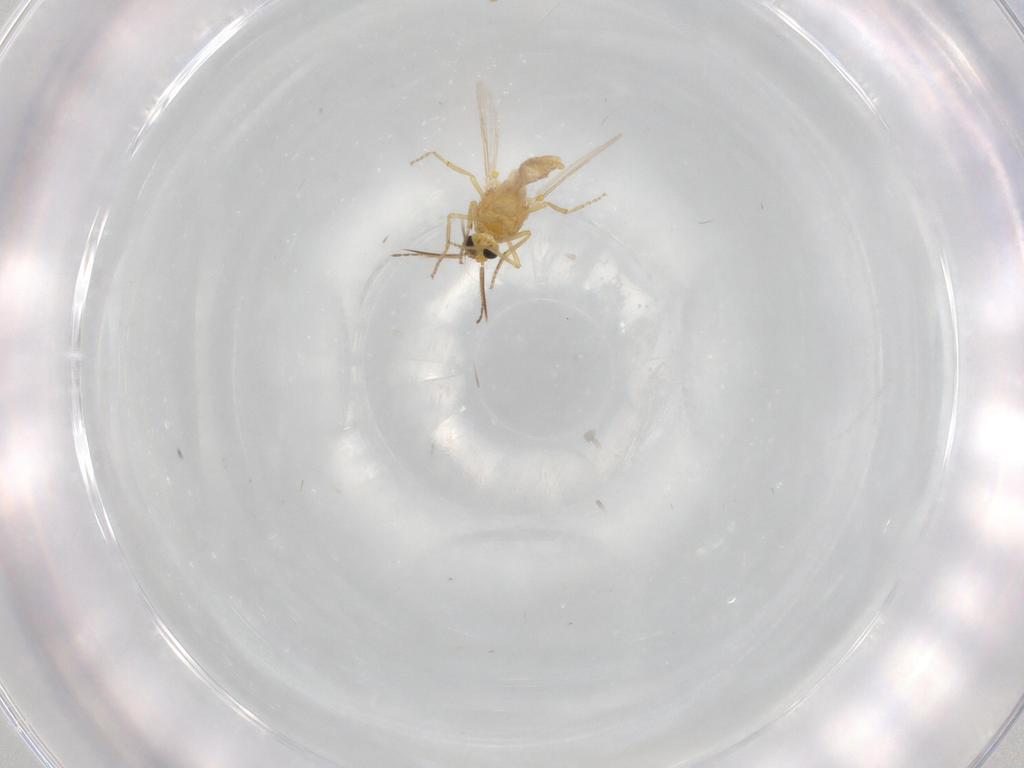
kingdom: Animalia
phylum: Arthropoda
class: Insecta
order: Diptera
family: Ceratopogonidae
